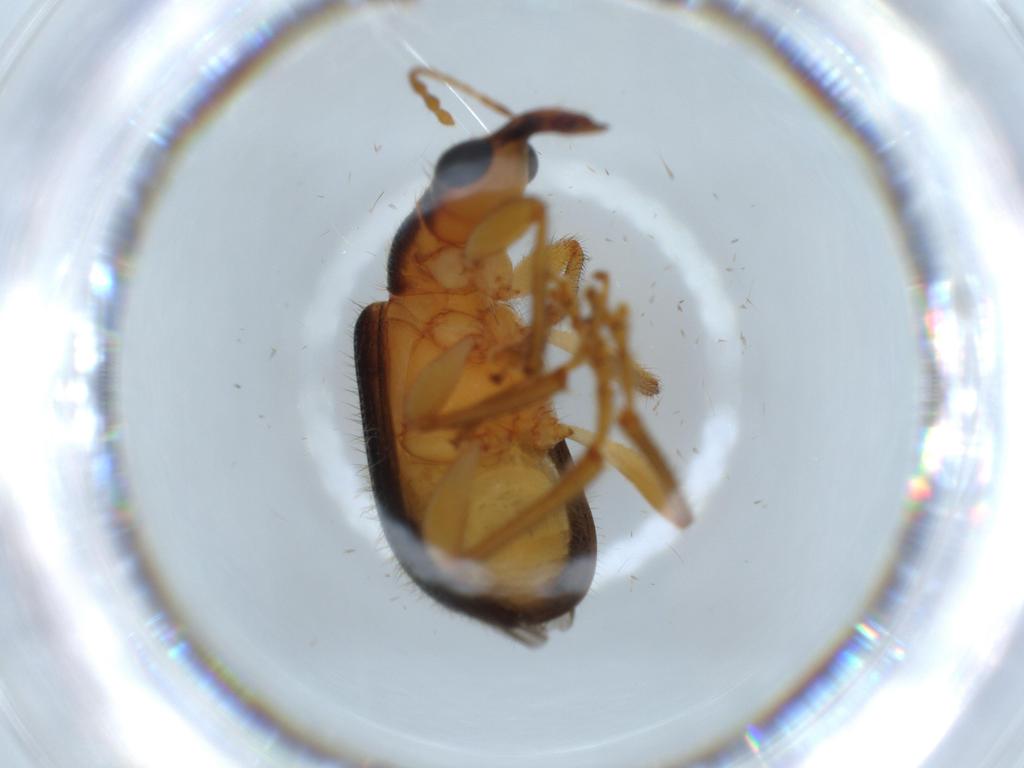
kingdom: Animalia
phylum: Arthropoda
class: Insecta
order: Coleoptera
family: Attelabidae
